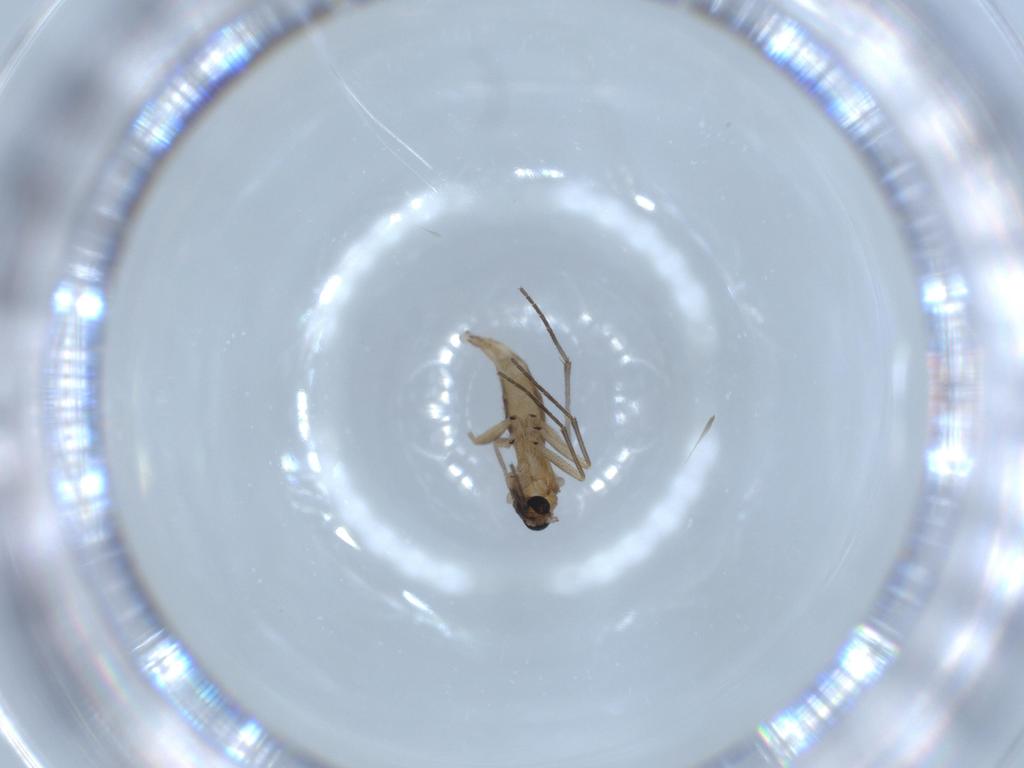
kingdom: Animalia
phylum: Arthropoda
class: Insecta
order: Diptera
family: Sciaridae
